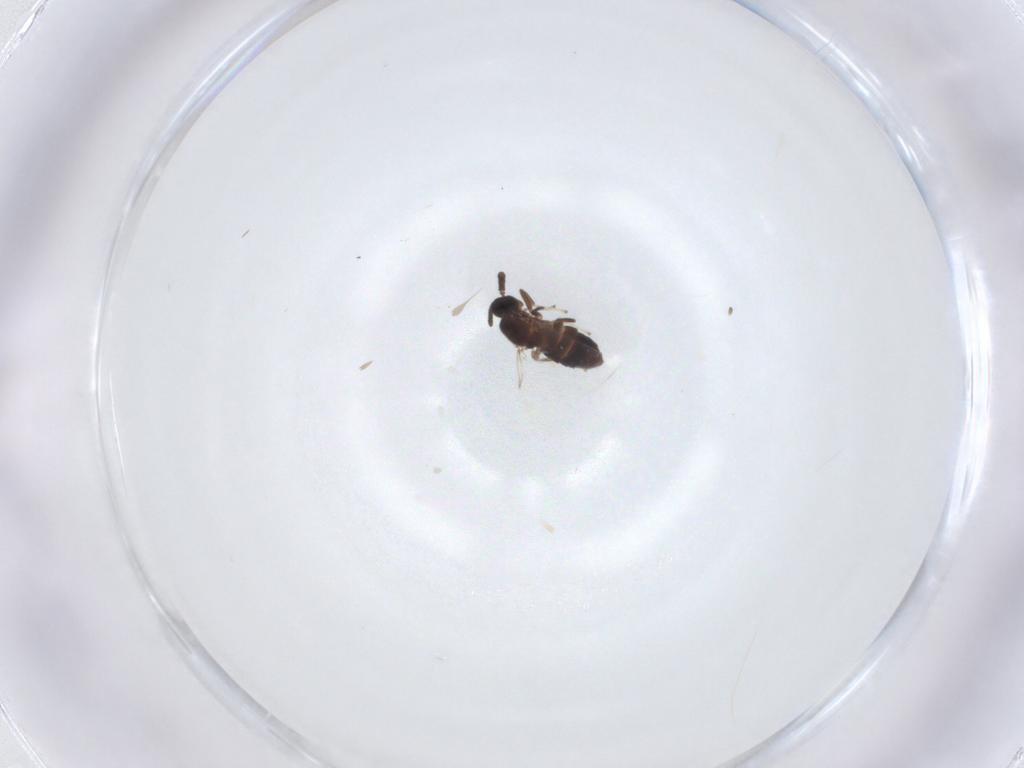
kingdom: Animalia
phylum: Arthropoda
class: Insecta
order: Diptera
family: Scatopsidae
